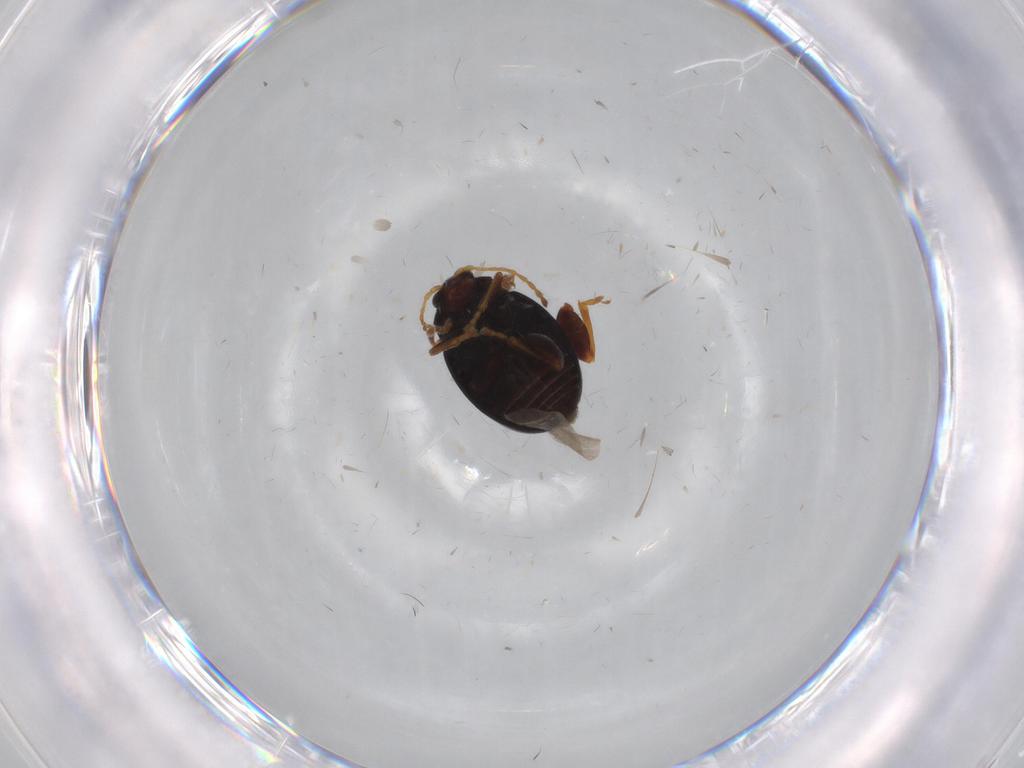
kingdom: Animalia
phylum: Arthropoda
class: Insecta
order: Coleoptera
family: Chrysomelidae
